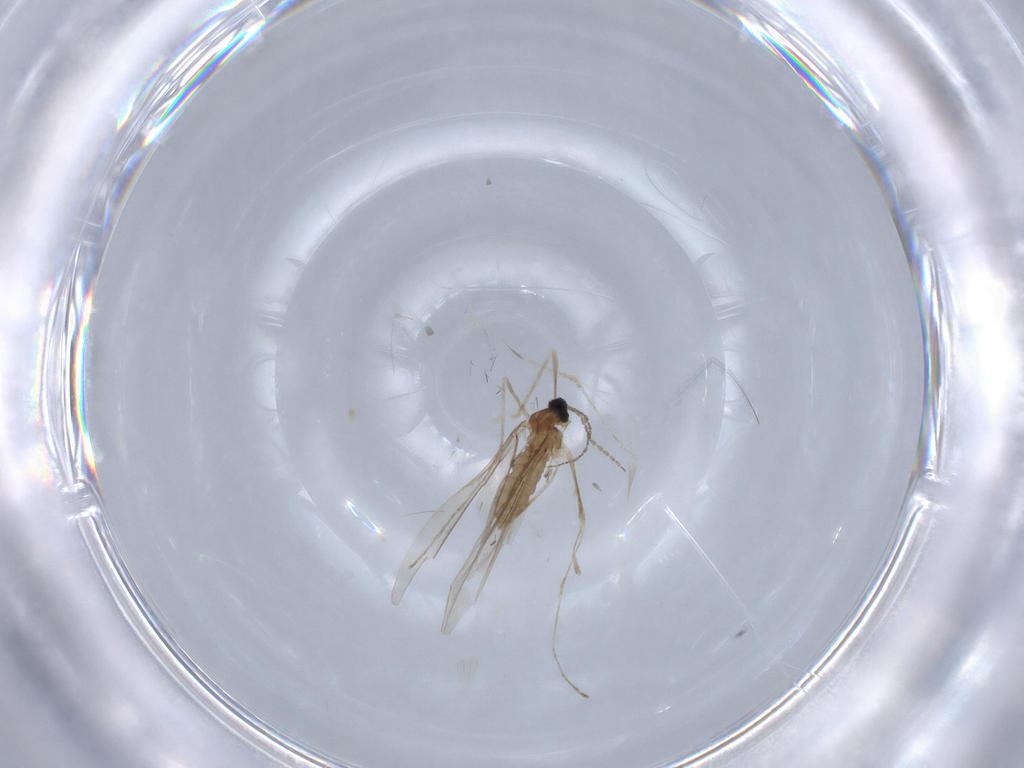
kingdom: Animalia
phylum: Arthropoda
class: Insecta
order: Diptera
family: Cecidomyiidae
